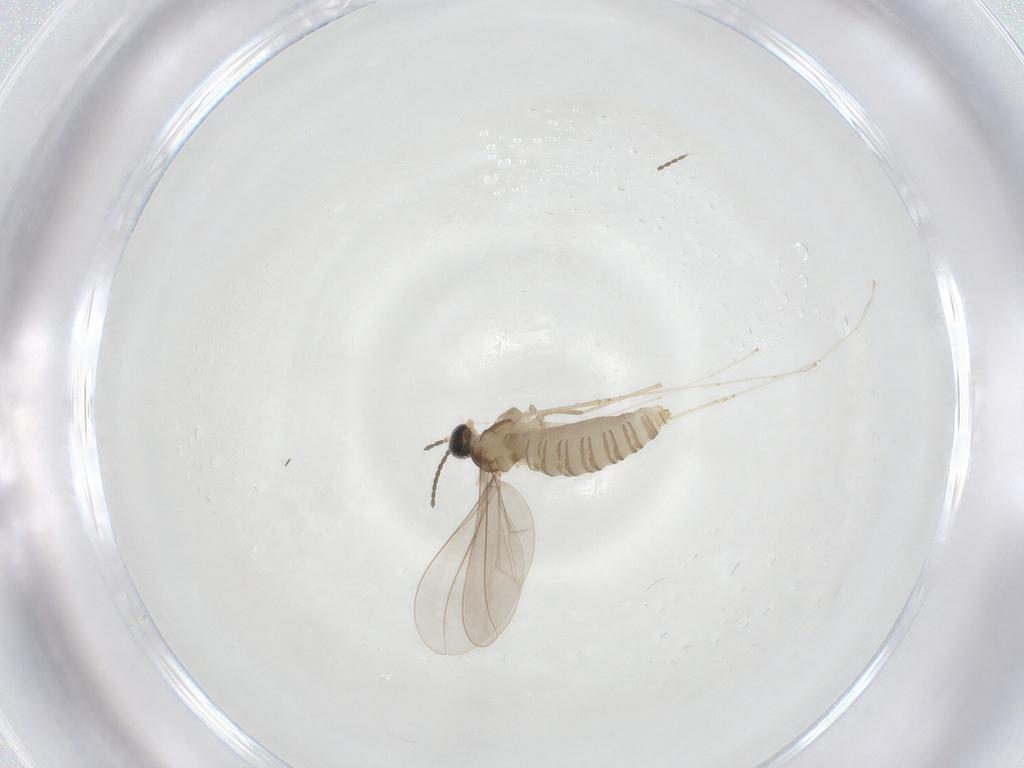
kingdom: Animalia
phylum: Arthropoda
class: Insecta
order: Diptera
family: Cecidomyiidae
